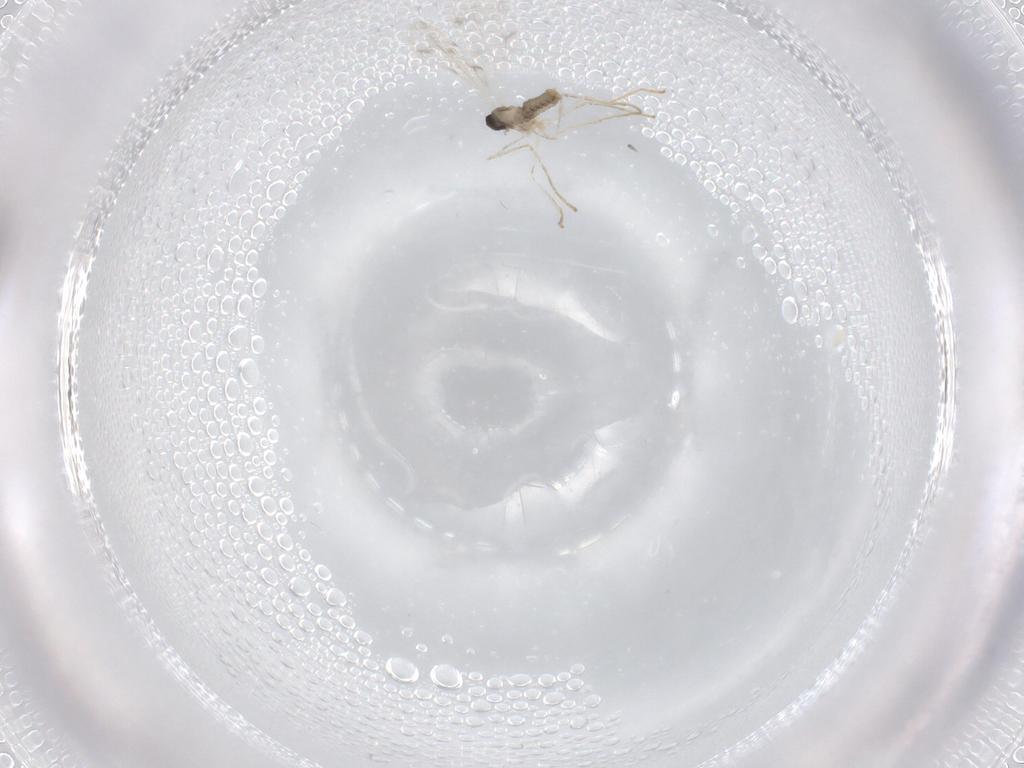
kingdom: Animalia
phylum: Arthropoda
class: Insecta
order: Diptera
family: Cecidomyiidae
